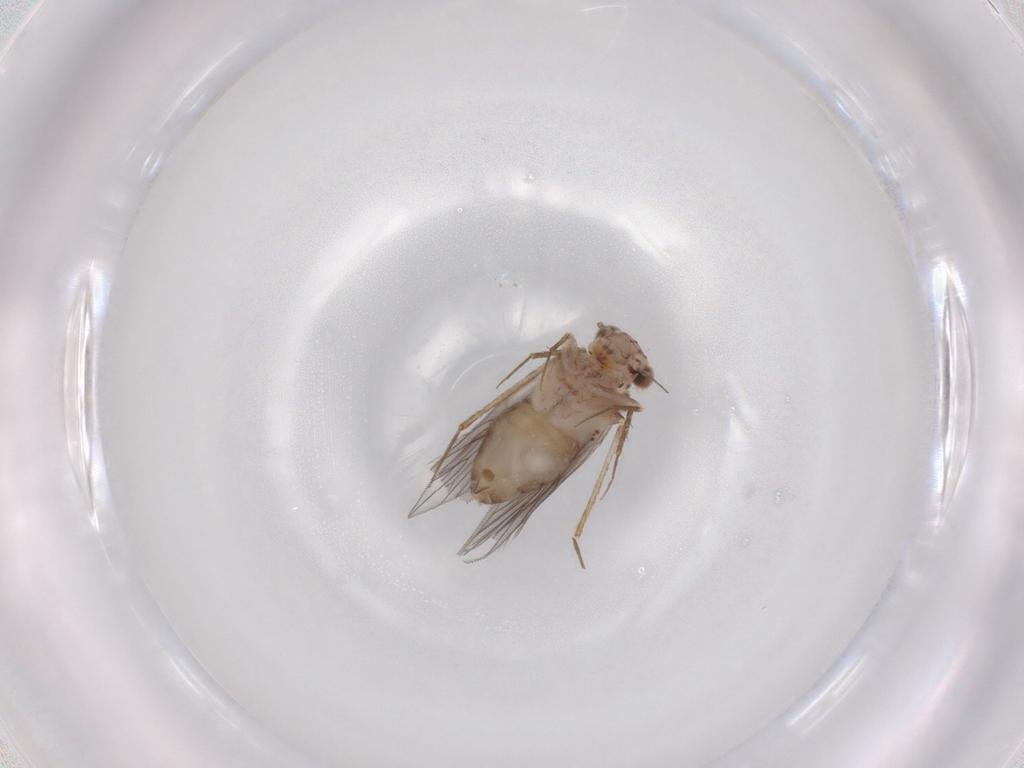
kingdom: Animalia
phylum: Arthropoda
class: Insecta
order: Psocodea
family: Lepidopsocidae
